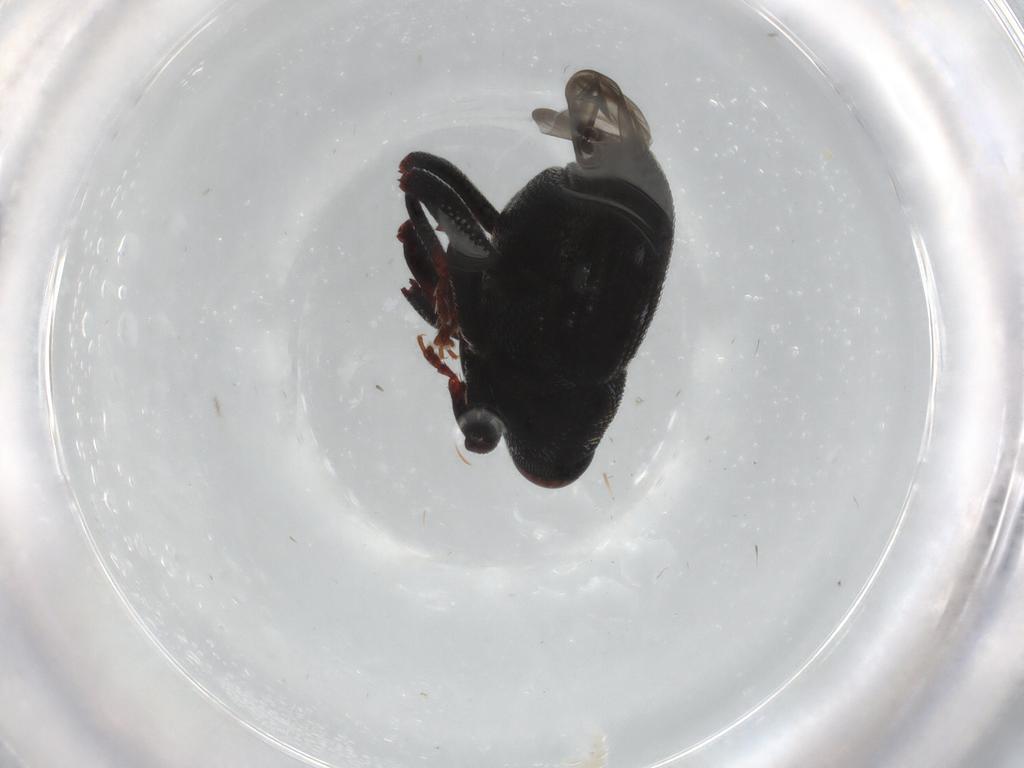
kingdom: Animalia
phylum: Arthropoda
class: Insecta
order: Coleoptera
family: Curculionidae
